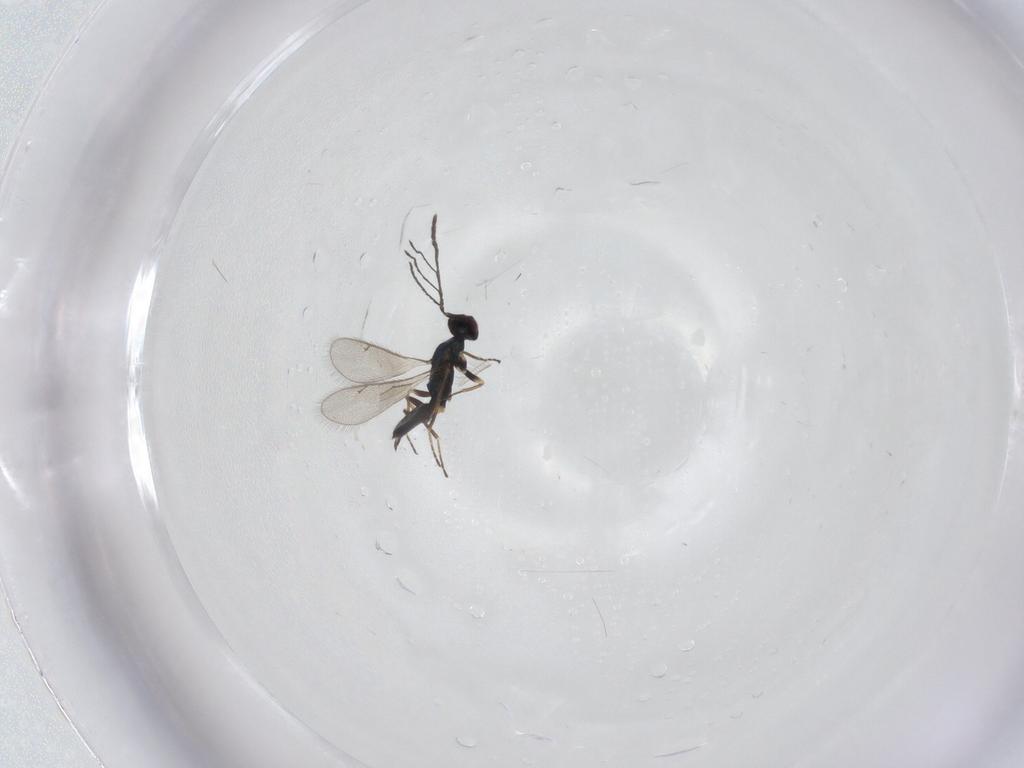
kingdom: Animalia
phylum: Arthropoda
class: Insecta
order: Hymenoptera
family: Eulophidae
